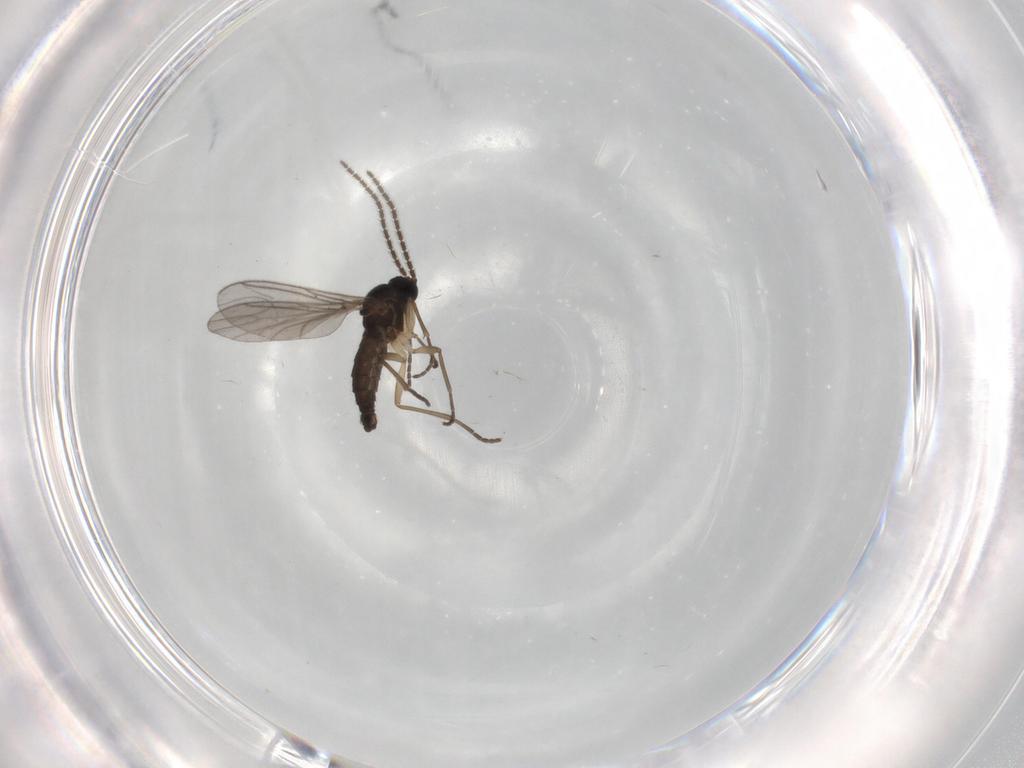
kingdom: Animalia
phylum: Arthropoda
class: Insecta
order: Diptera
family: Sciaridae
